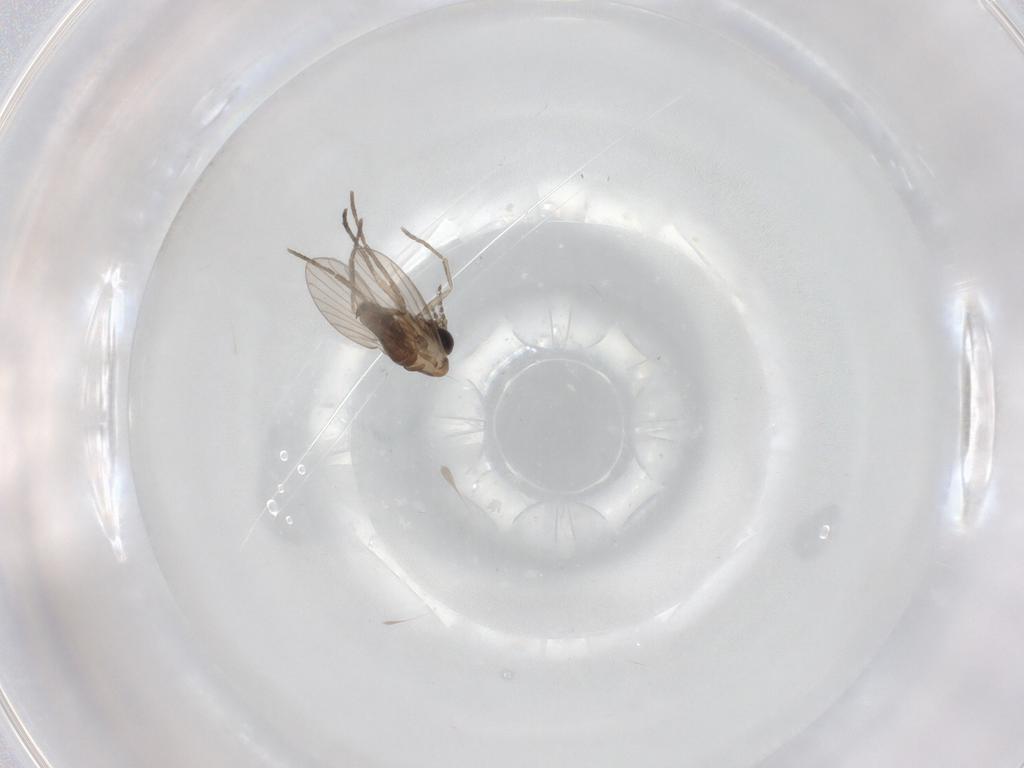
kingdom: Animalia
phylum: Arthropoda
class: Insecta
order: Diptera
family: Psychodidae
